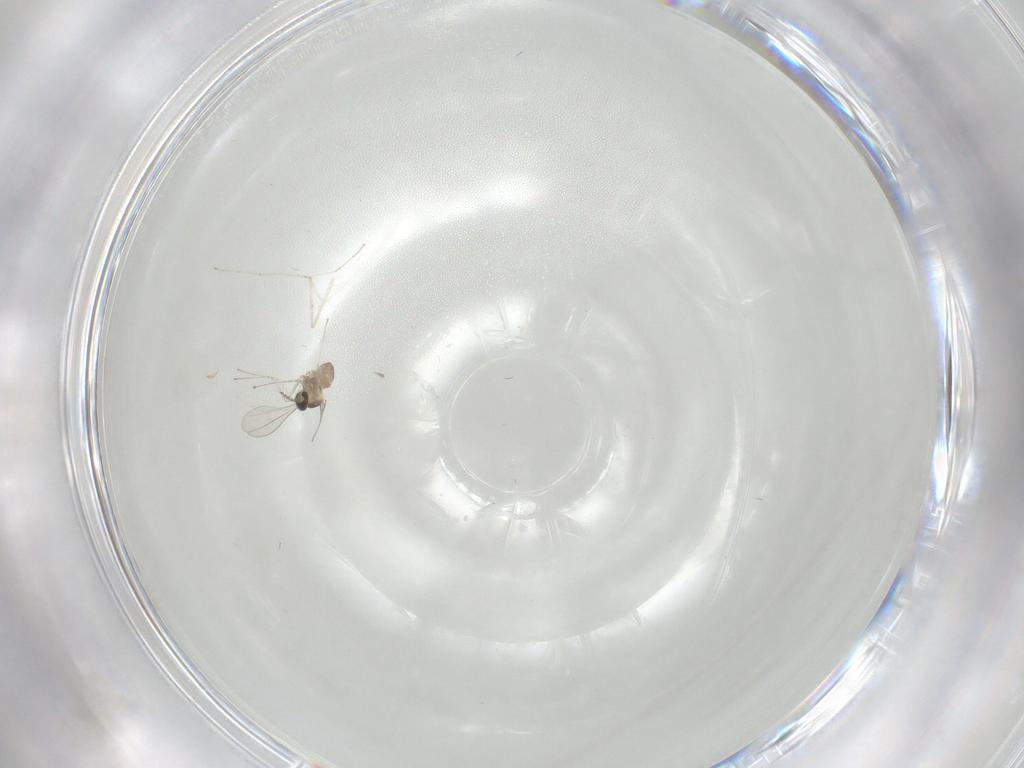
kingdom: Animalia
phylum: Arthropoda
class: Insecta
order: Diptera
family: Cecidomyiidae
